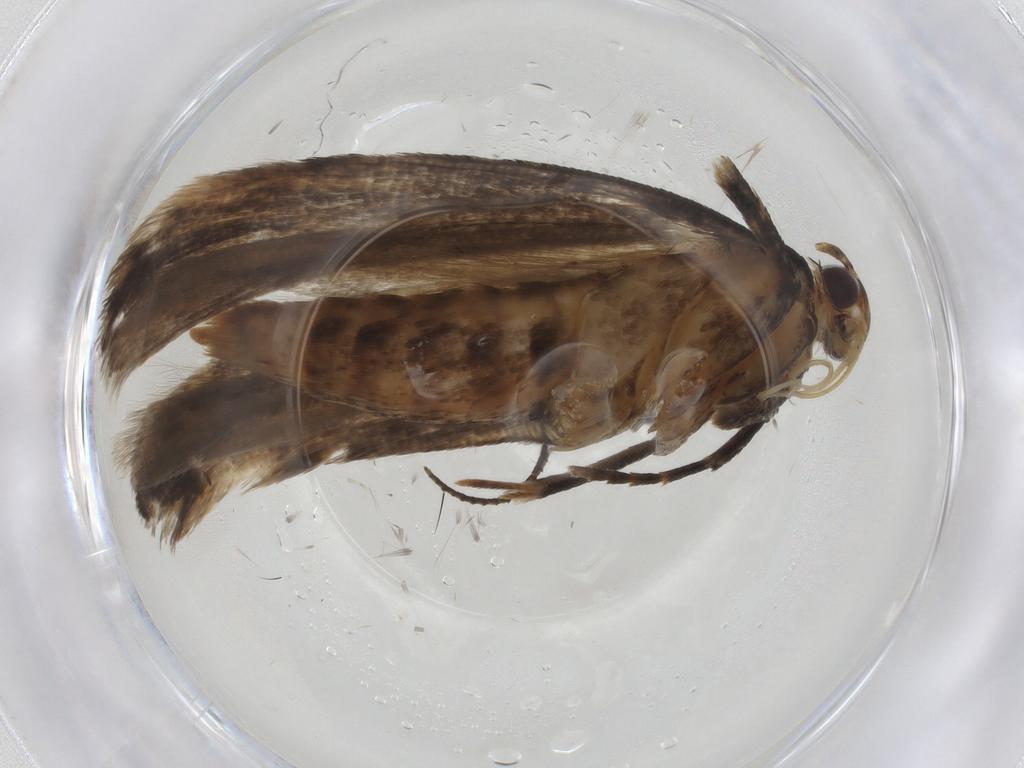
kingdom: Animalia
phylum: Arthropoda
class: Insecta
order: Lepidoptera
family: Gelechiidae
